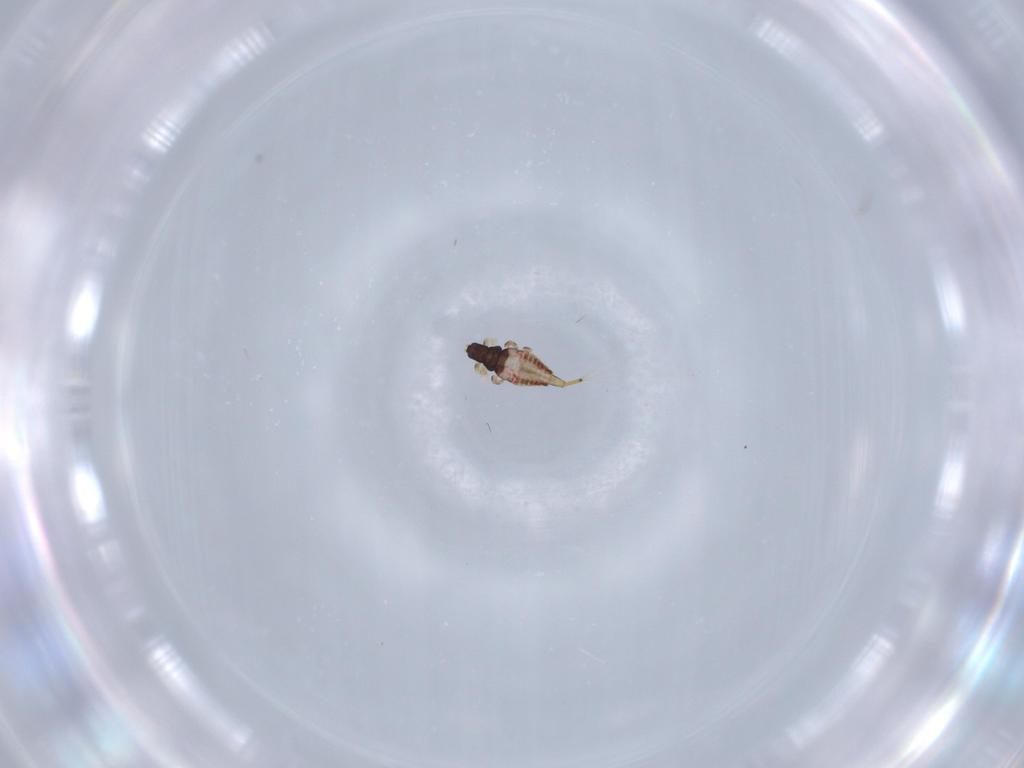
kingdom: Animalia
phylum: Arthropoda
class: Insecta
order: Thysanoptera
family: Phlaeothripidae
